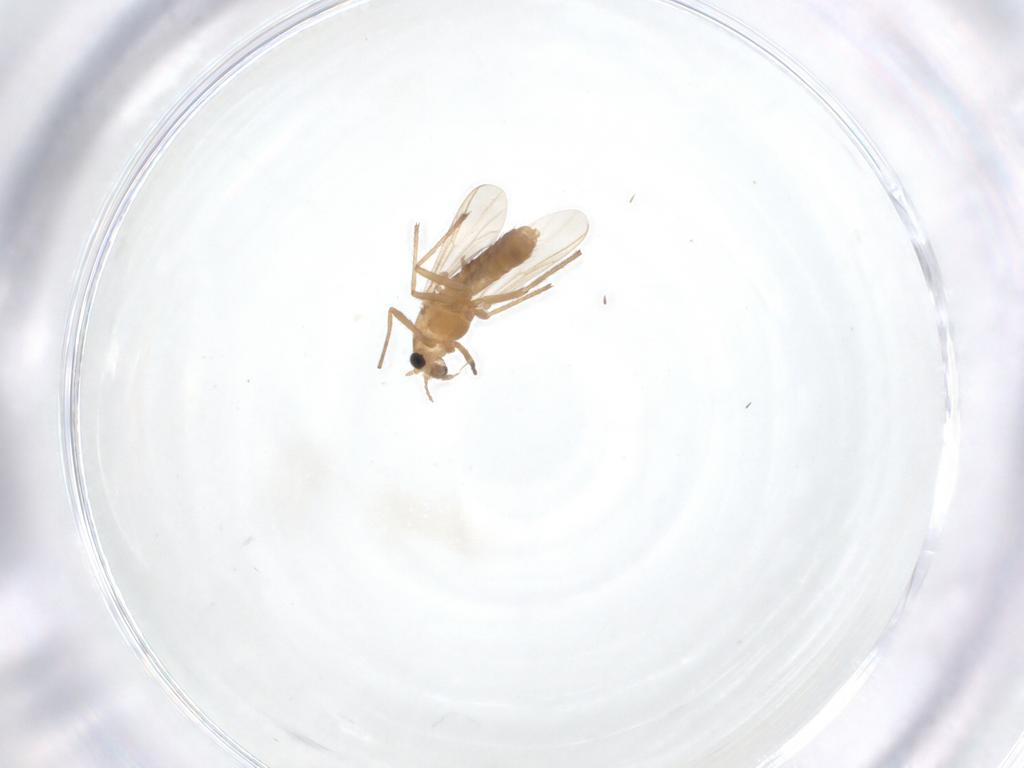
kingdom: Animalia
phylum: Arthropoda
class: Insecta
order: Diptera
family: Chironomidae
